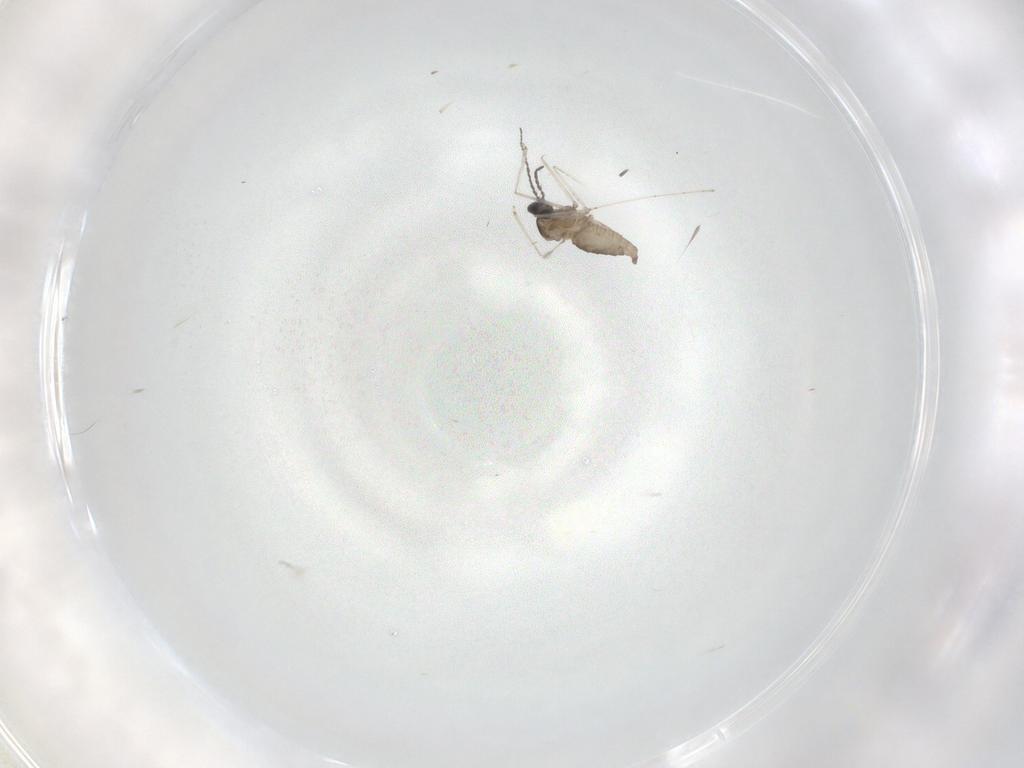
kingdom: Animalia
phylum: Arthropoda
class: Insecta
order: Diptera
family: Cecidomyiidae
